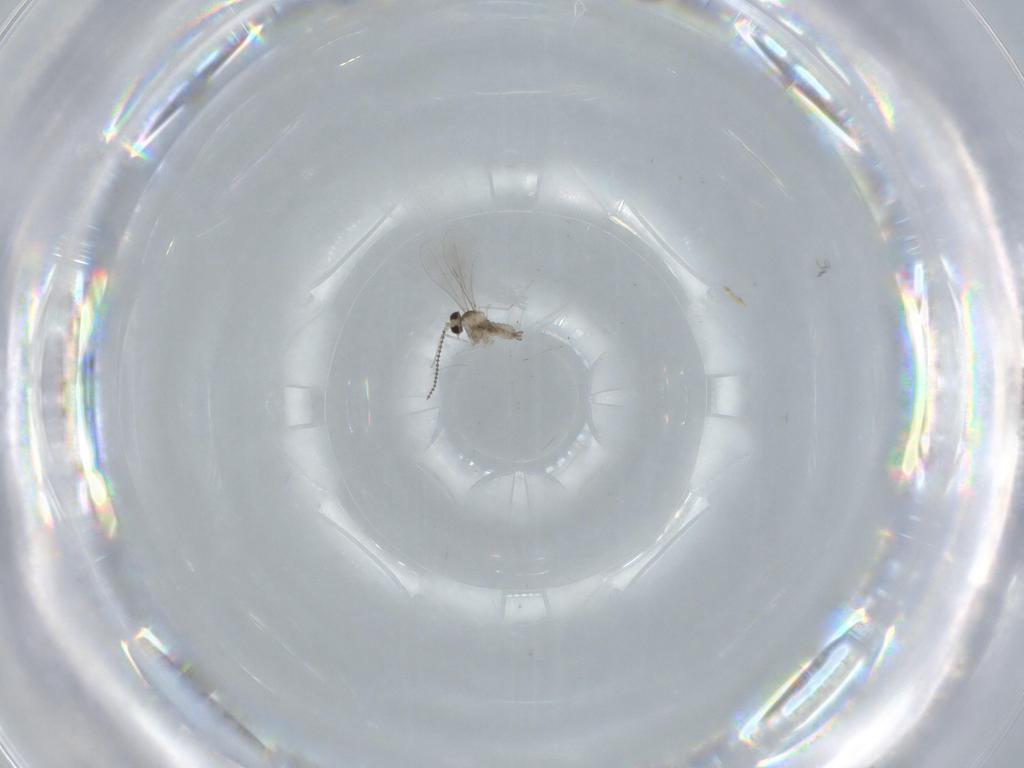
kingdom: Animalia
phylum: Arthropoda
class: Insecta
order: Diptera
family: Cecidomyiidae
